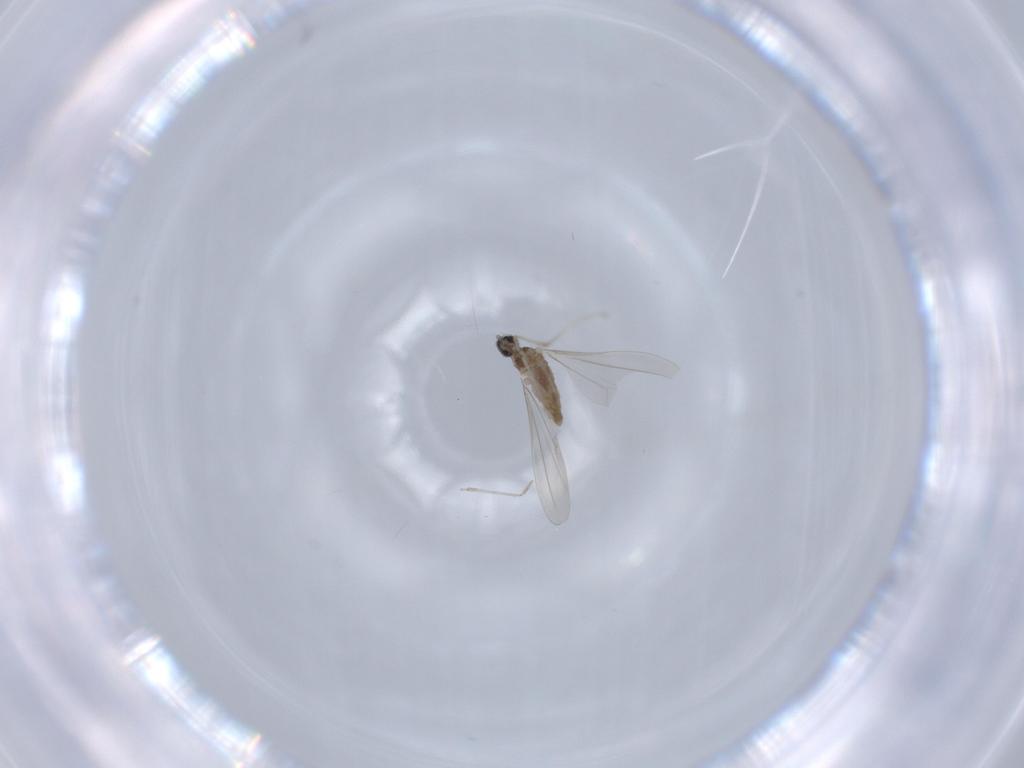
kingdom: Animalia
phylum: Arthropoda
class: Insecta
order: Diptera
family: Cecidomyiidae
